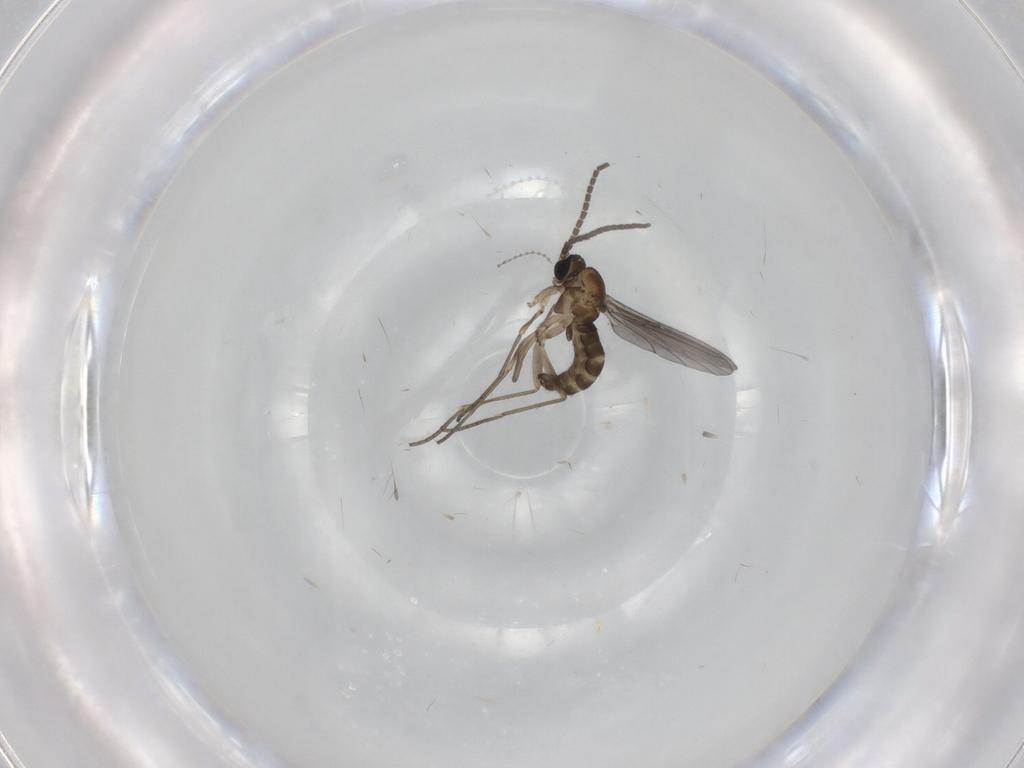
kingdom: Animalia
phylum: Arthropoda
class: Insecta
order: Diptera
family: Sciaridae
